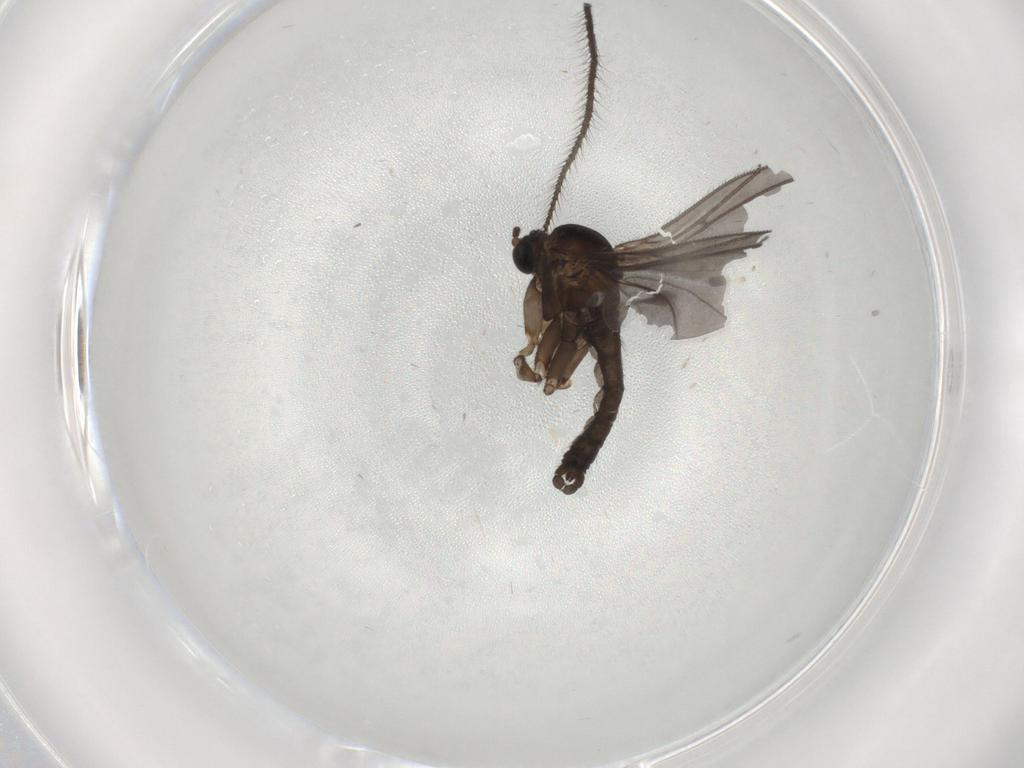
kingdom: Animalia
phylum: Arthropoda
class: Insecta
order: Diptera
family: Sciaridae
